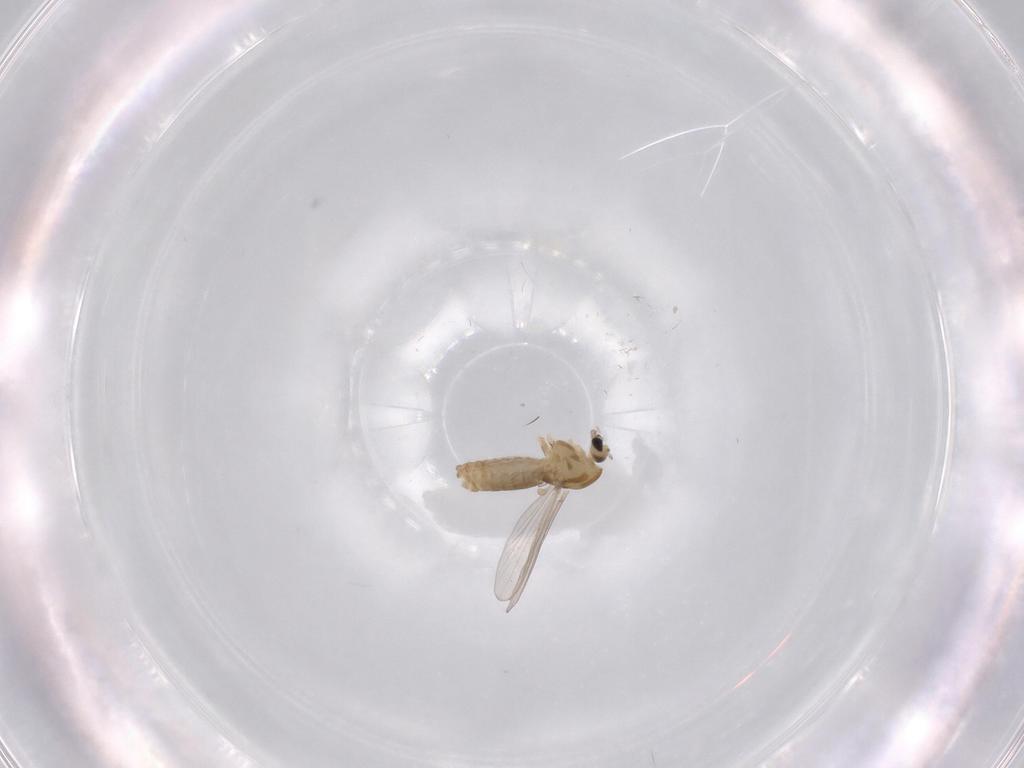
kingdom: Animalia
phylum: Arthropoda
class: Insecta
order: Diptera
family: Chironomidae
